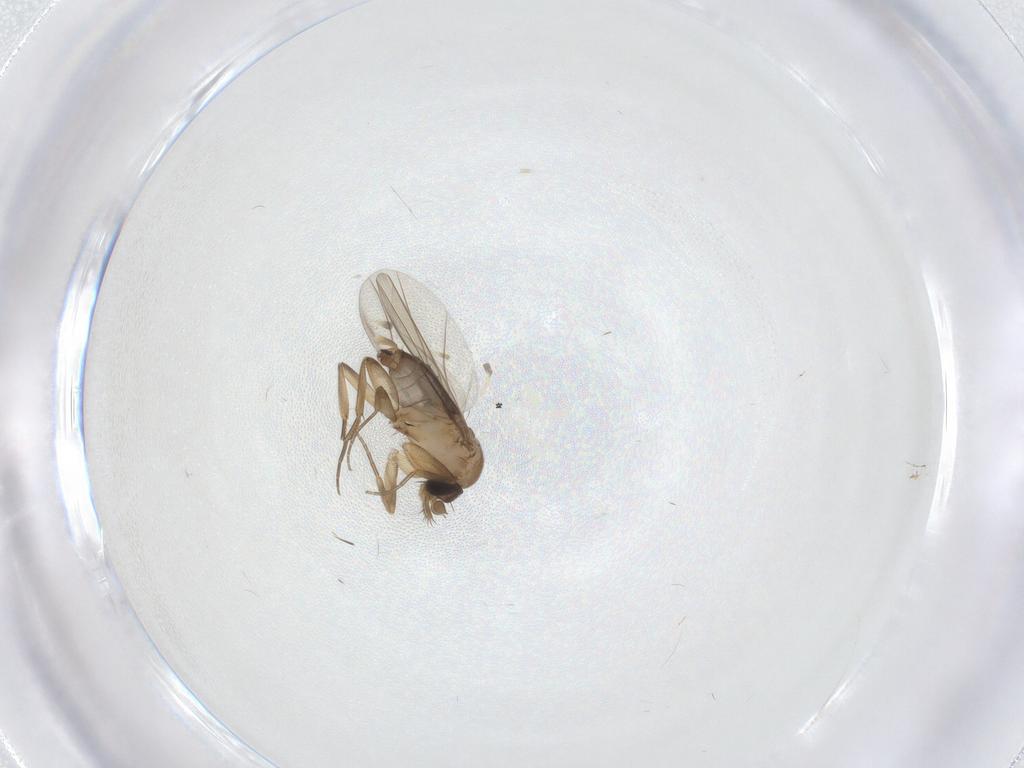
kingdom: Animalia
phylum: Arthropoda
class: Insecta
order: Diptera
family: Phoridae
